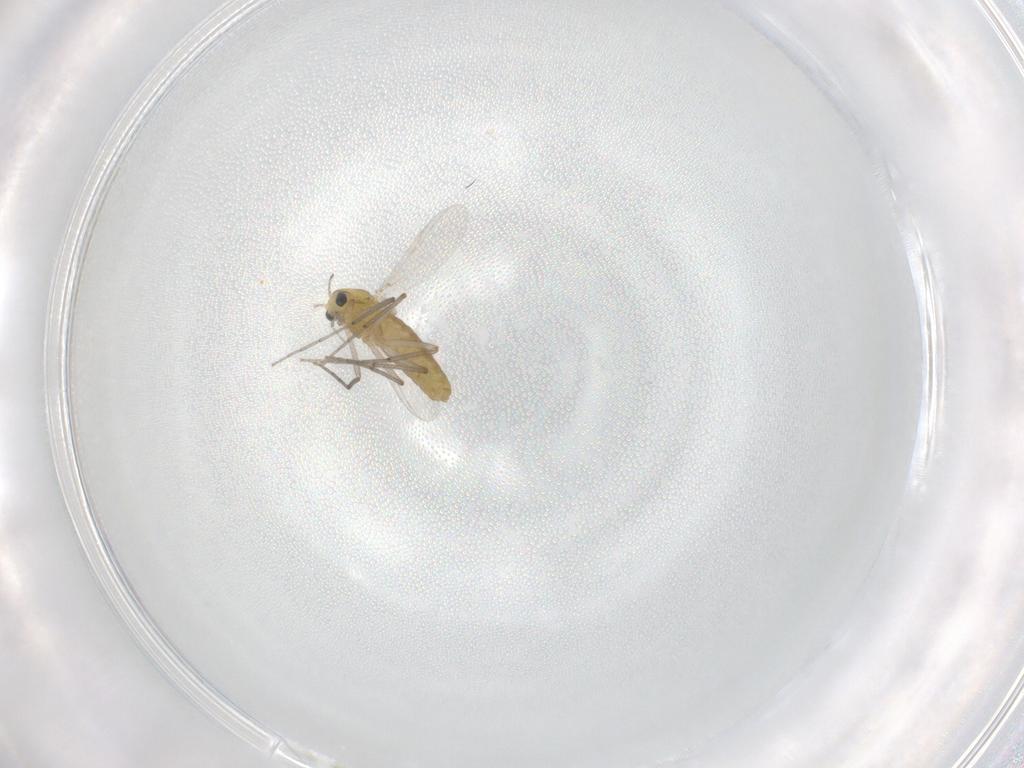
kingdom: Animalia
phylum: Arthropoda
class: Insecta
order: Diptera
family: Chironomidae
